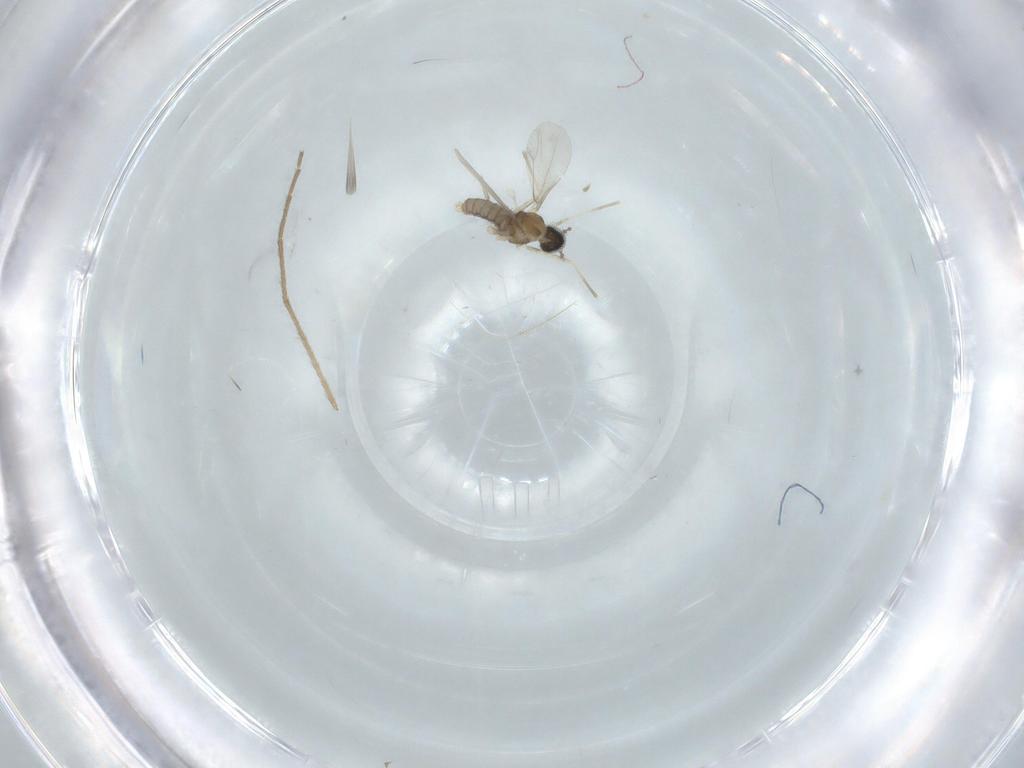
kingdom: Animalia
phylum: Arthropoda
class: Insecta
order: Diptera
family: Chironomidae
